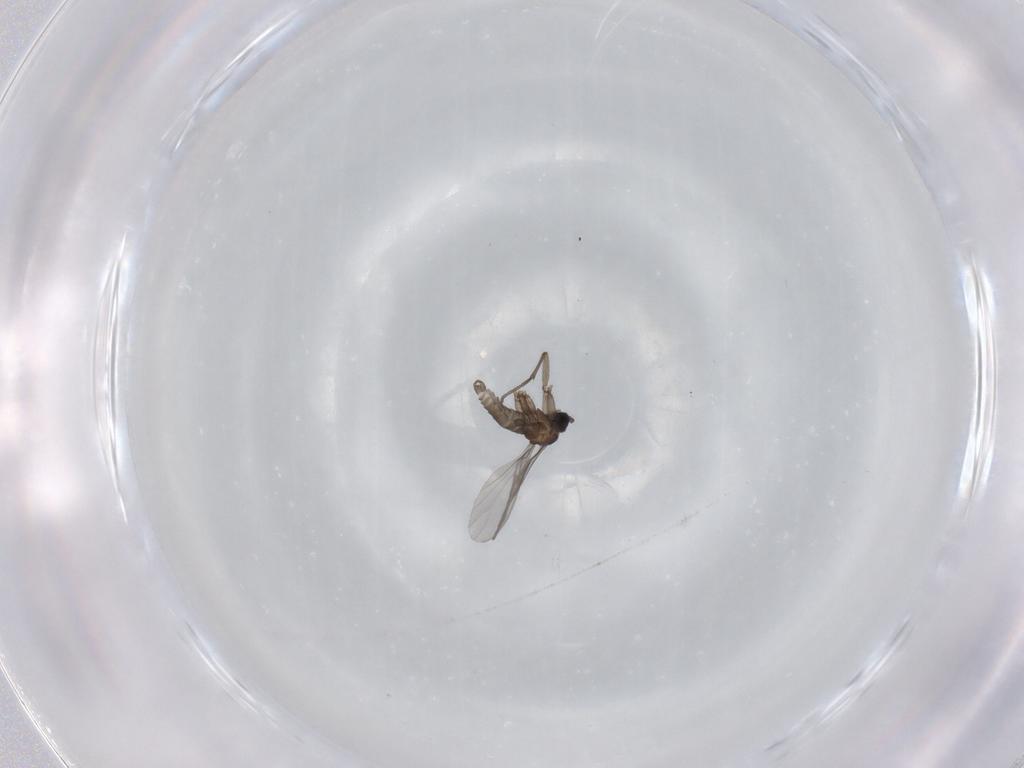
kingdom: Animalia
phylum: Arthropoda
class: Insecta
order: Diptera
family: Sciaridae
